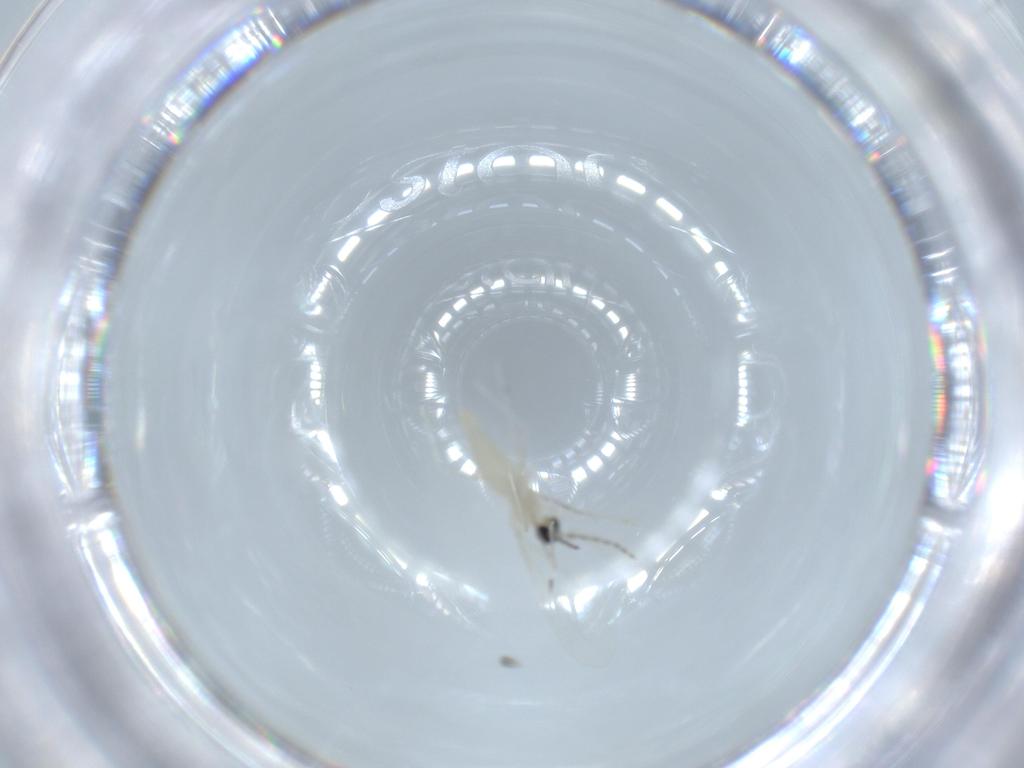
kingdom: Animalia
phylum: Arthropoda
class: Insecta
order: Diptera
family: Cecidomyiidae
